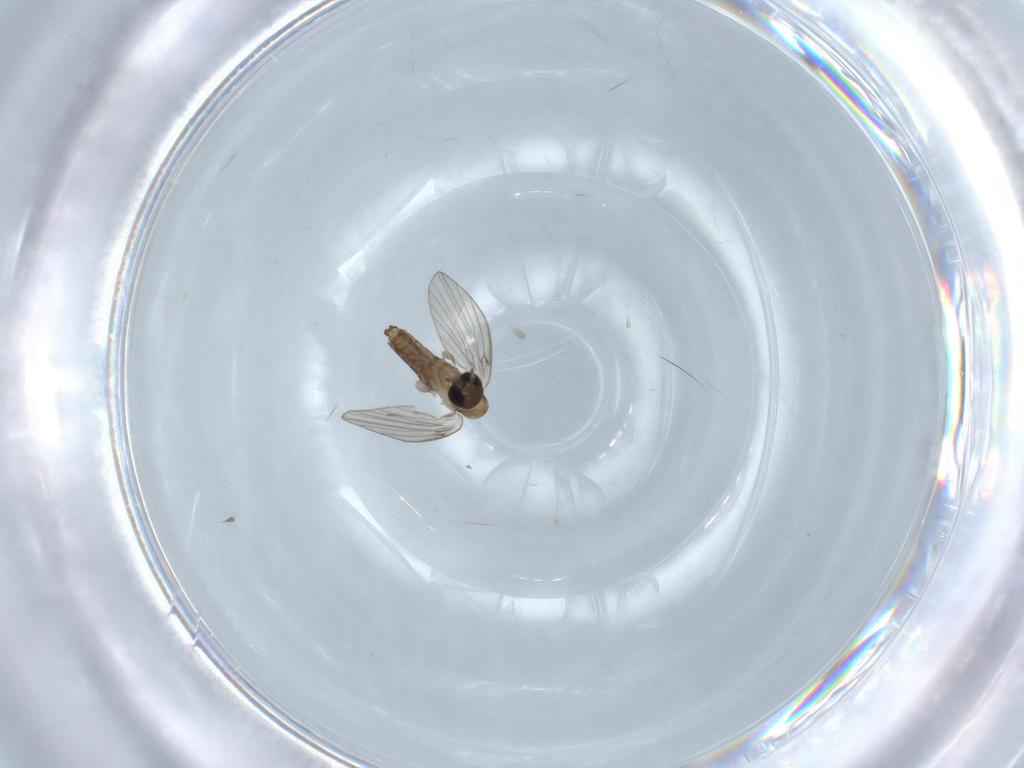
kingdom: Animalia
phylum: Arthropoda
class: Insecta
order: Diptera
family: Psychodidae
